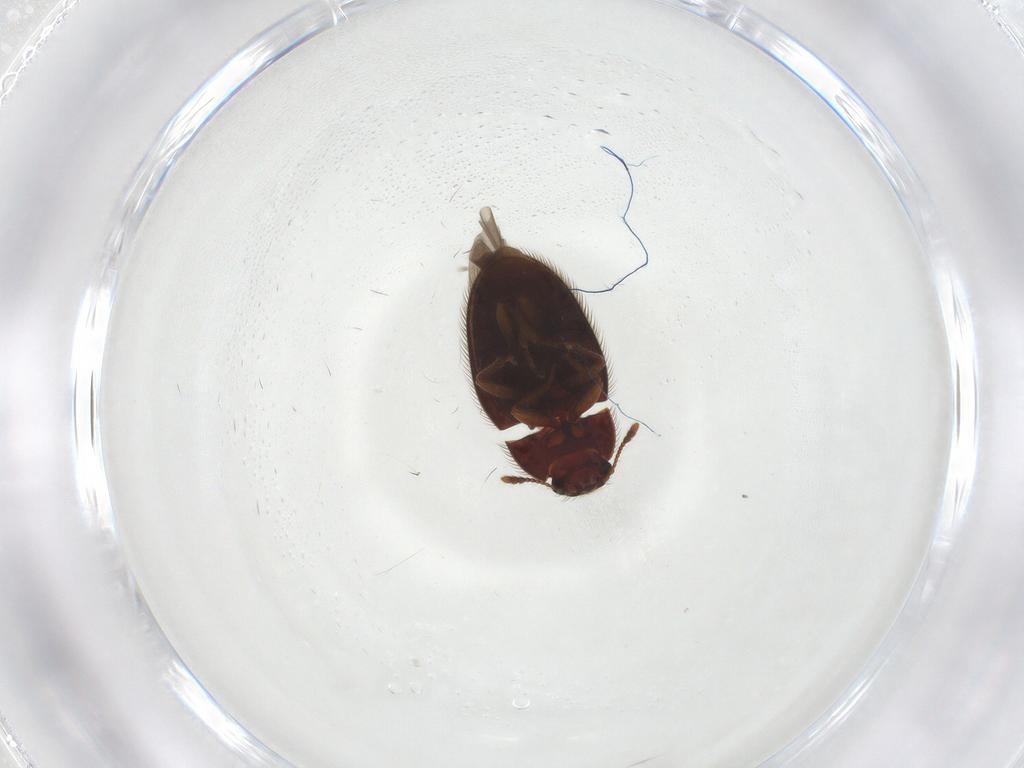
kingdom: Animalia
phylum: Arthropoda
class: Insecta
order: Coleoptera
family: Biphyllidae
